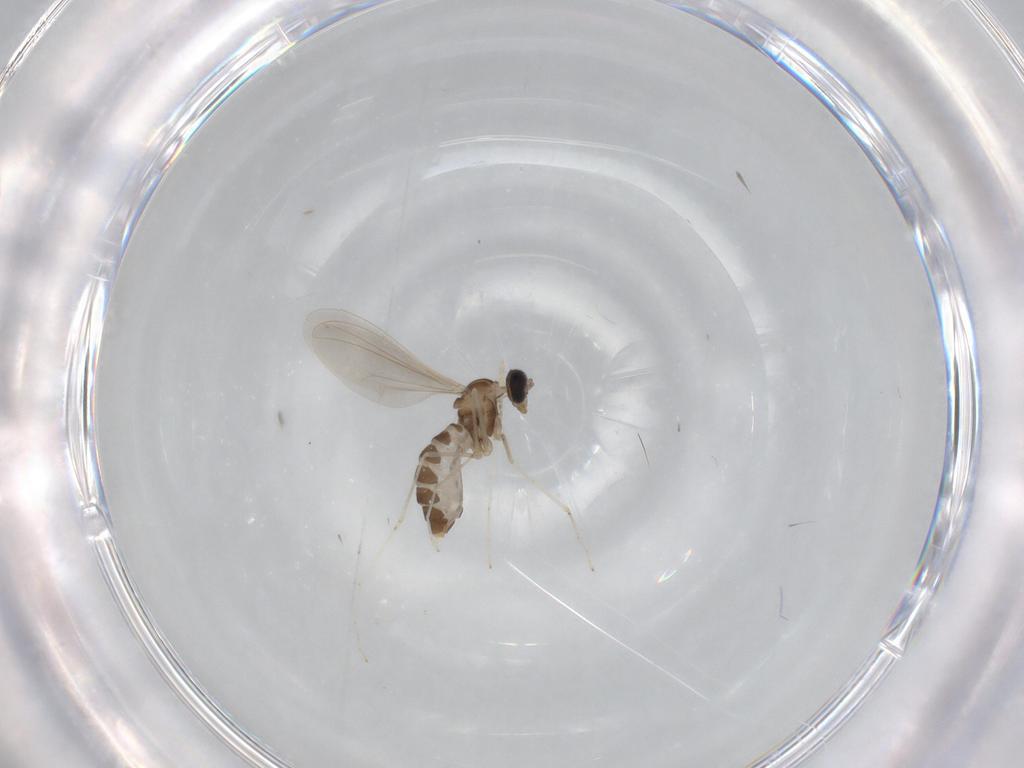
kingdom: Animalia
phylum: Arthropoda
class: Insecta
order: Diptera
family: Cecidomyiidae
